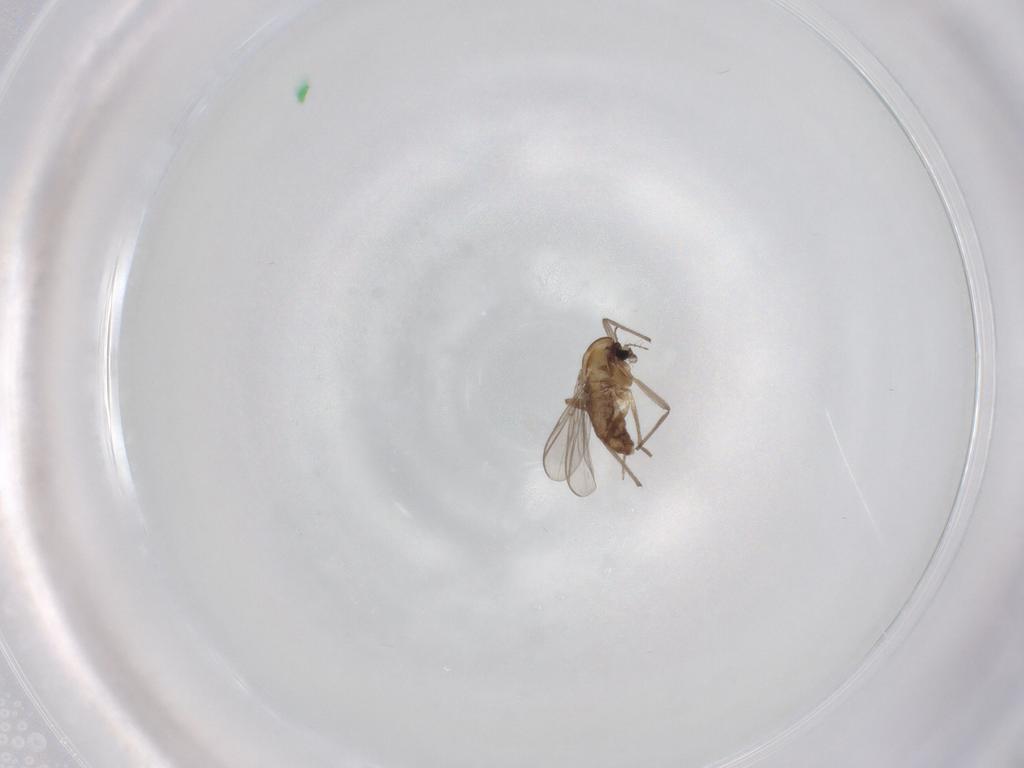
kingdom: Animalia
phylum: Arthropoda
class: Insecta
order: Diptera
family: Chironomidae
